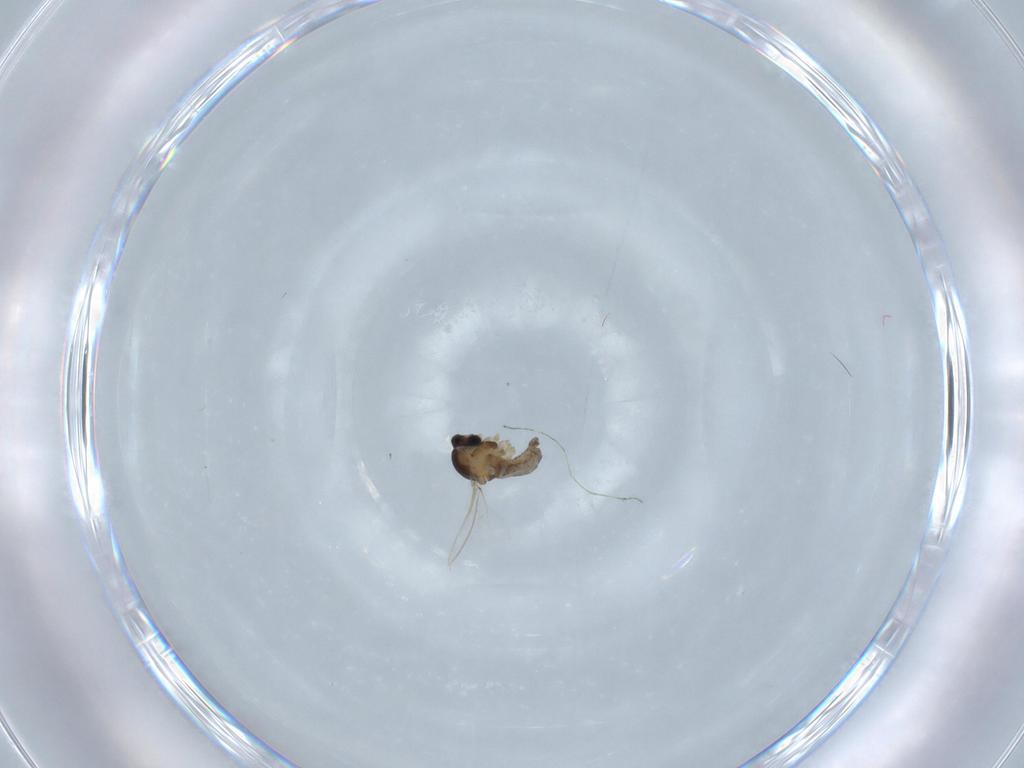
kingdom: Animalia
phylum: Arthropoda
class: Insecta
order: Diptera
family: Cecidomyiidae
